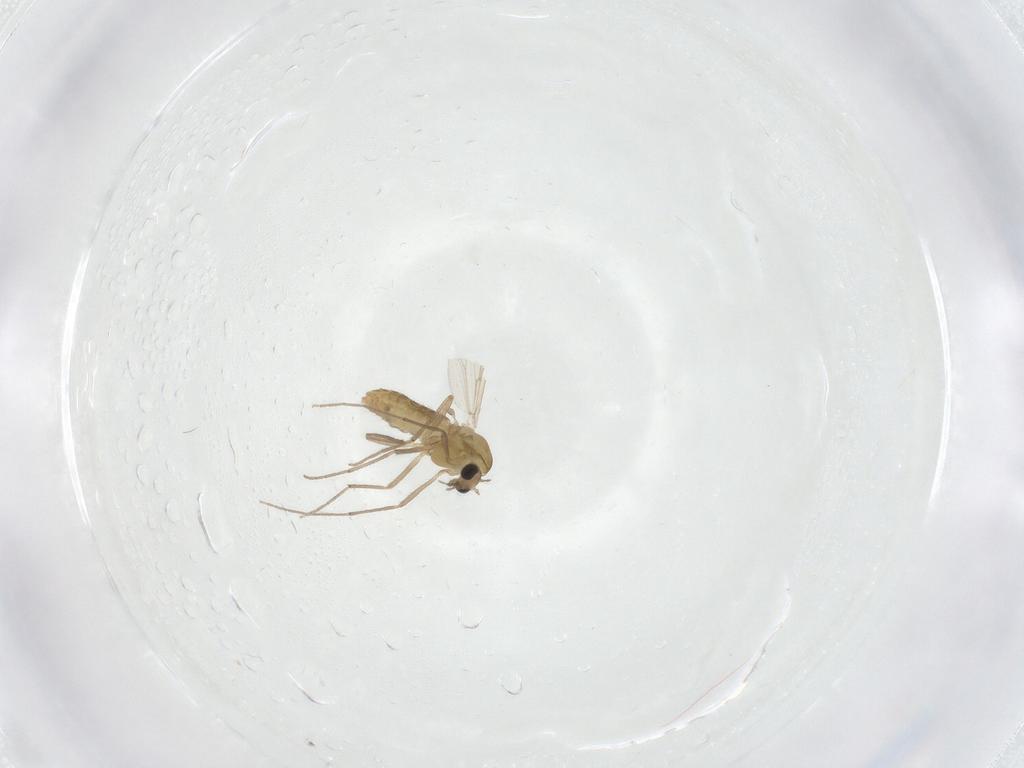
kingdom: Animalia
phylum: Arthropoda
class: Insecta
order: Diptera
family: Chironomidae
